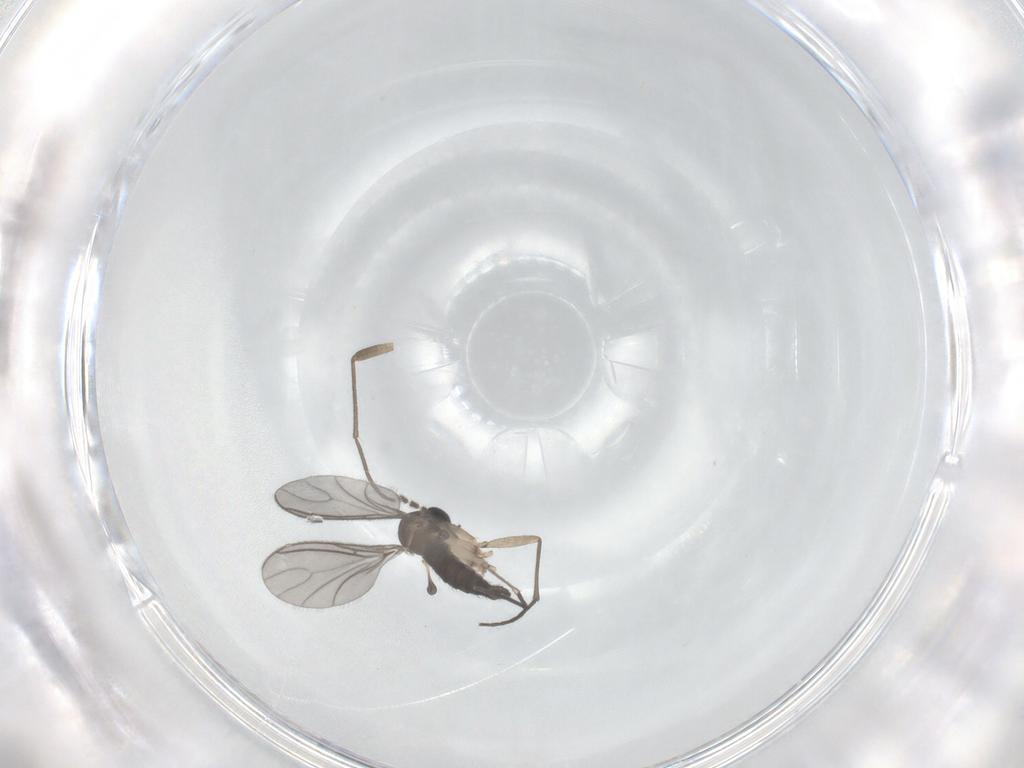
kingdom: Animalia
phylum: Arthropoda
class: Insecta
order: Diptera
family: Sciaridae
